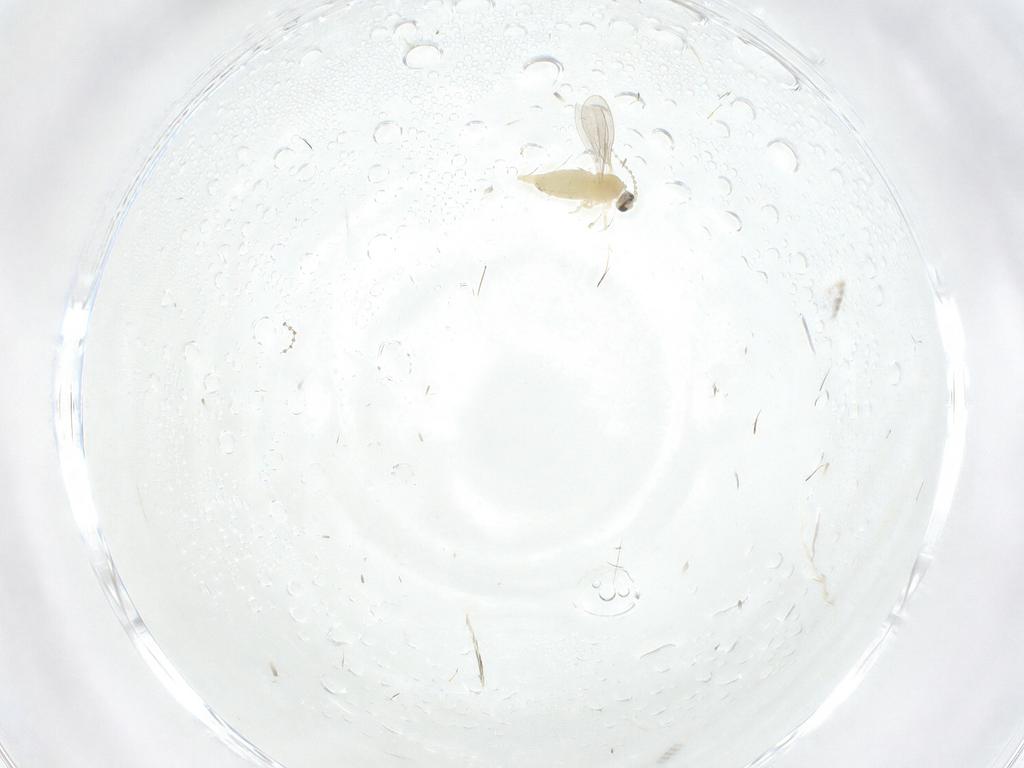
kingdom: Animalia
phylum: Arthropoda
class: Insecta
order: Diptera
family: Cecidomyiidae
